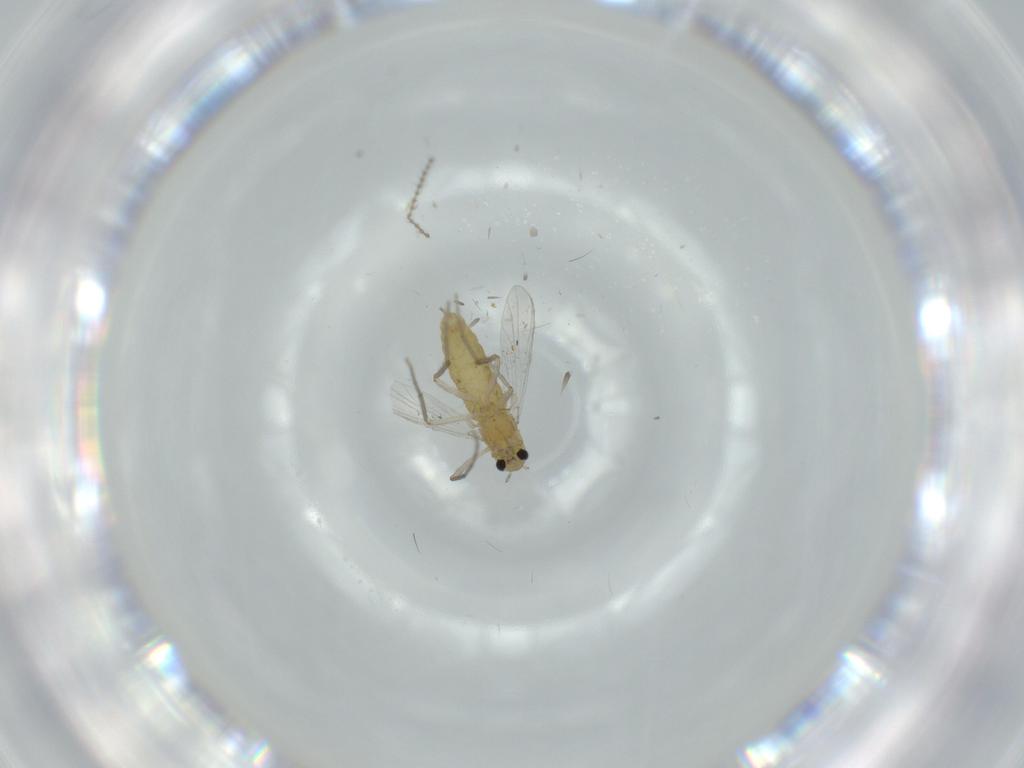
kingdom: Animalia
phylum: Arthropoda
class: Insecta
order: Diptera
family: Chironomidae
